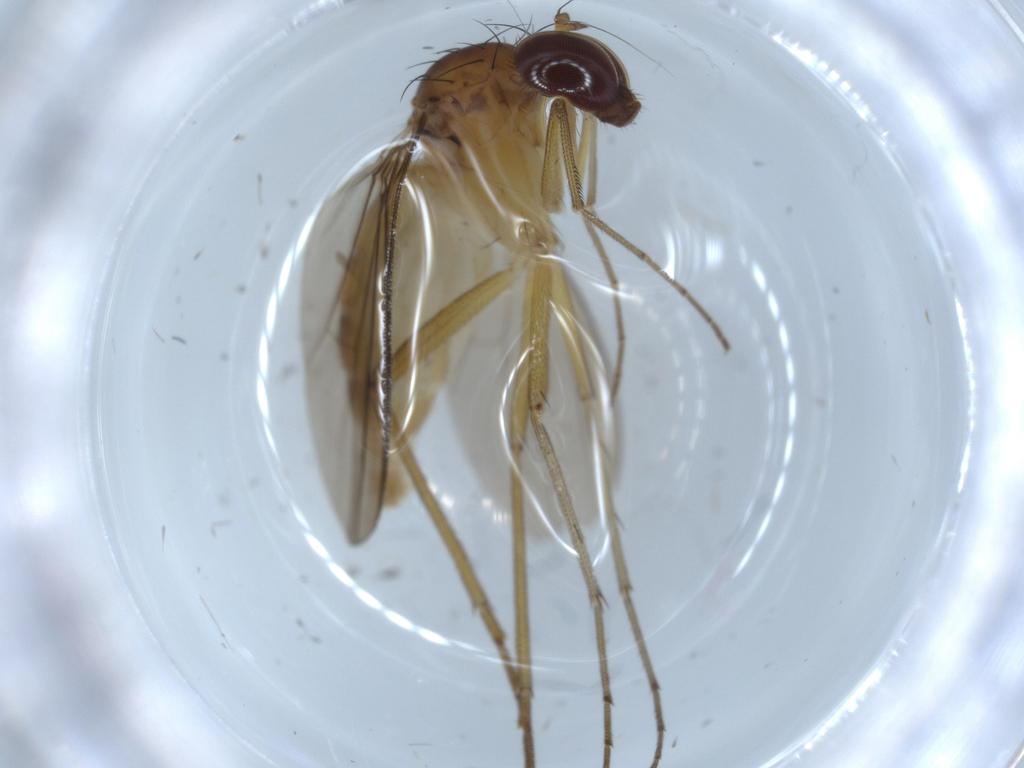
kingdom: Animalia
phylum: Arthropoda
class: Insecta
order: Diptera
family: Dolichopodidae
